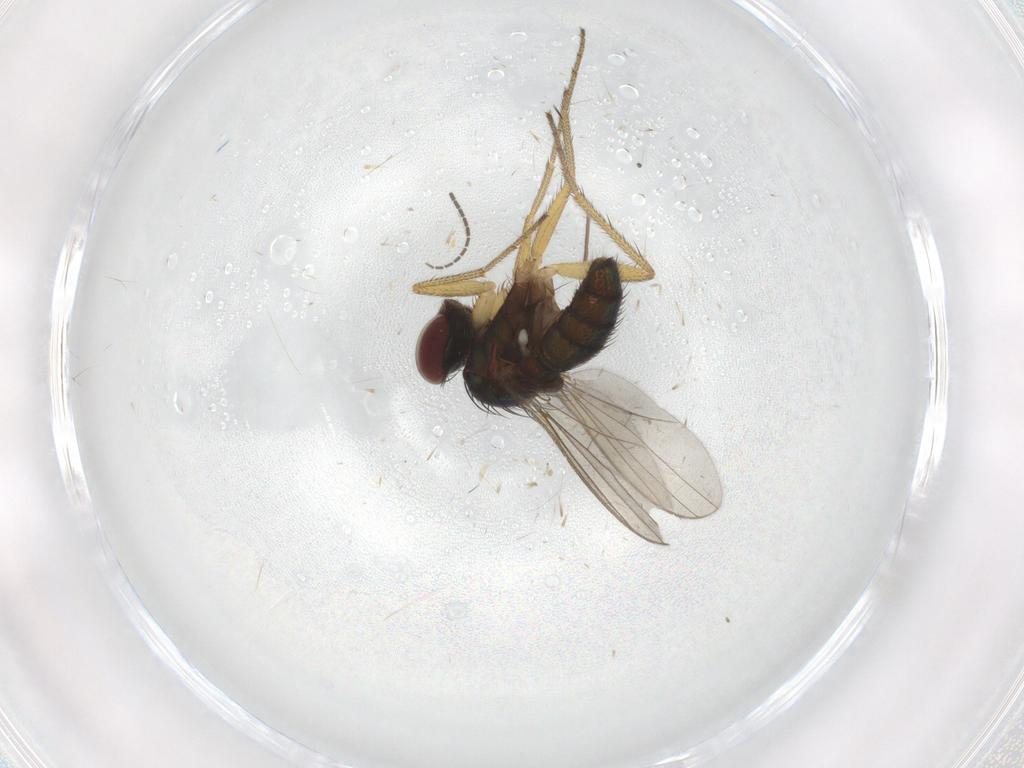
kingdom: Animalia
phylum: Arthropoda
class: Insecta
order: Diptera
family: Sciaridae
